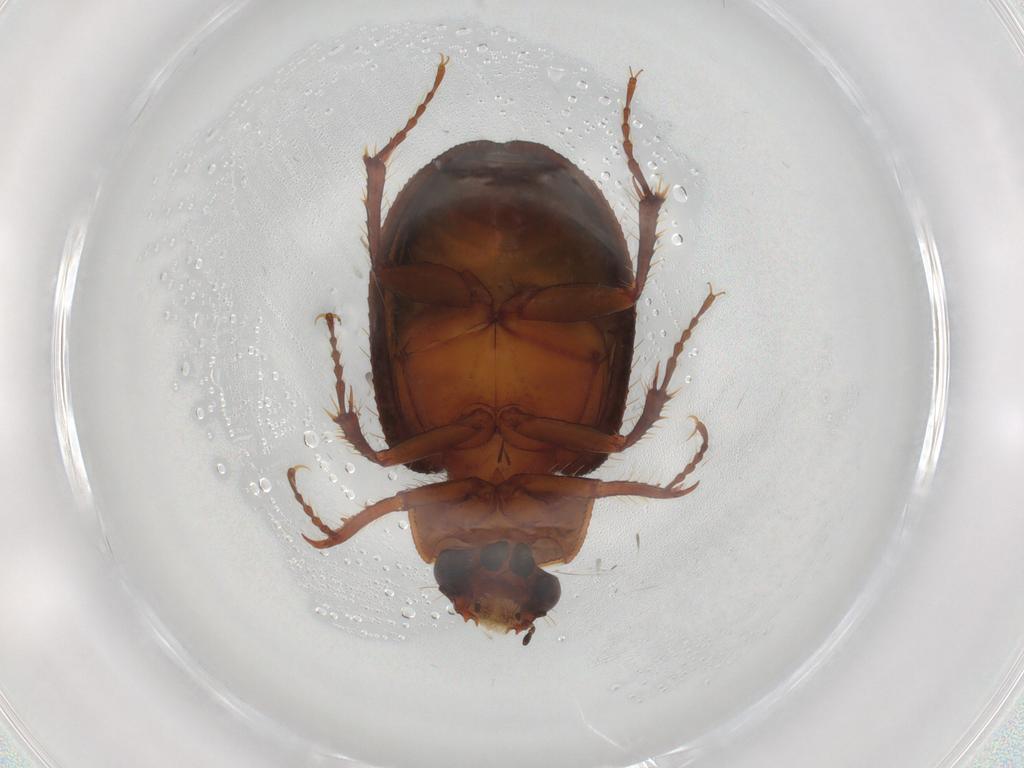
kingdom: Animalia
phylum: Arthropoda
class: Insecta
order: Coleoptera
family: Chrysomelidae
